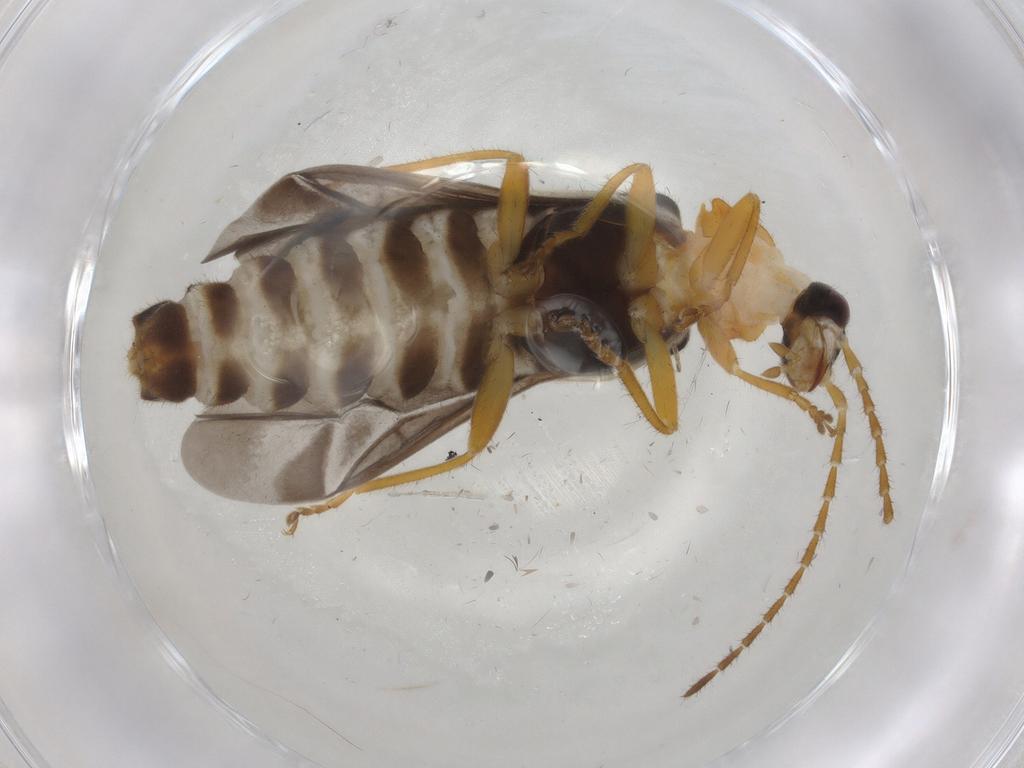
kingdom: Animalia
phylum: Arthropoda
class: Insecta
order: Coleoptera
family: Cantharidae
